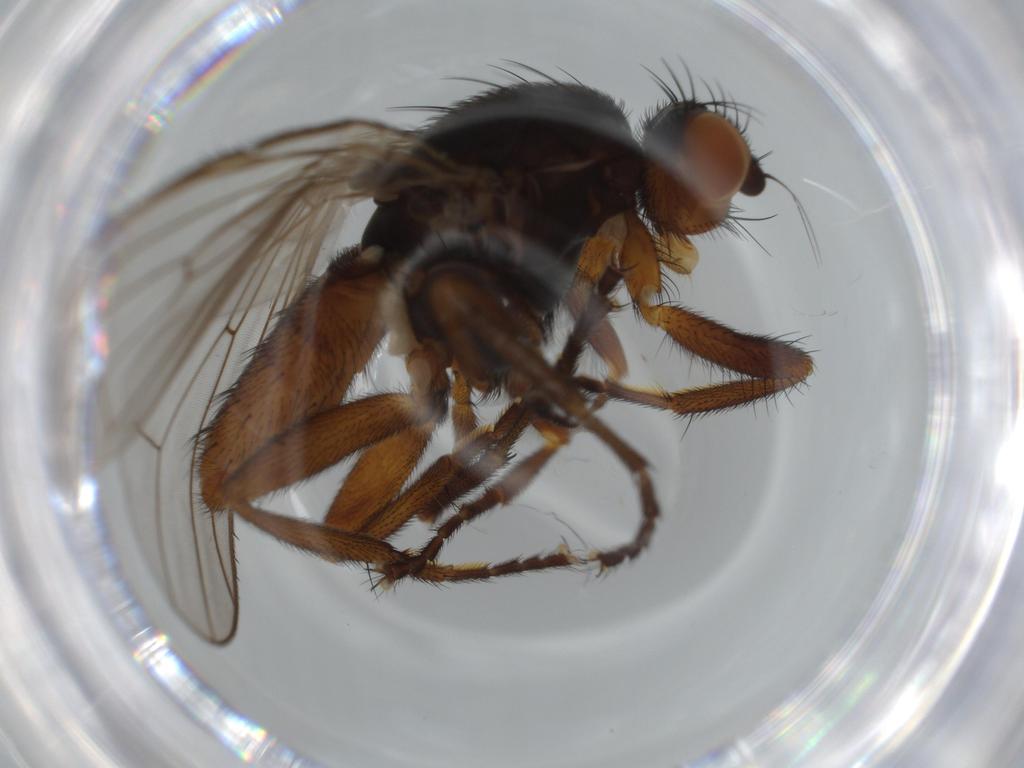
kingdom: Animalia
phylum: Arthropoda
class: Insecta
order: Diptera
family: Heleomyzidae
